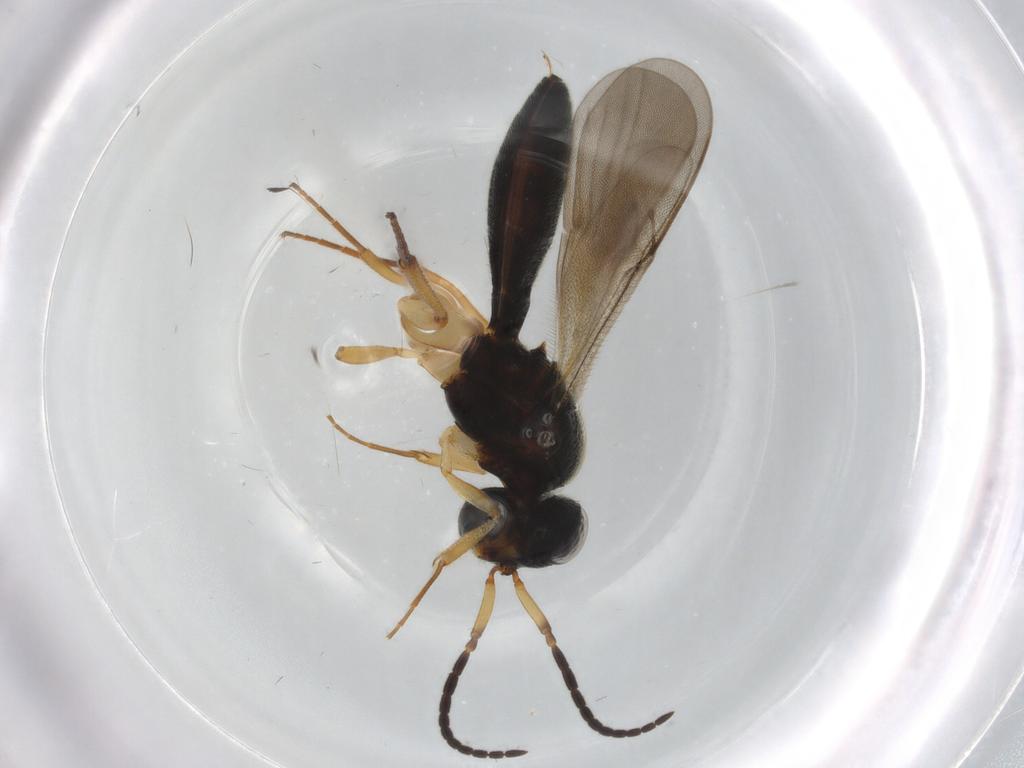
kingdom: Animalia
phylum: Arthropoda
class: Insecta
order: Hymenoptera
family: Scelionidae
